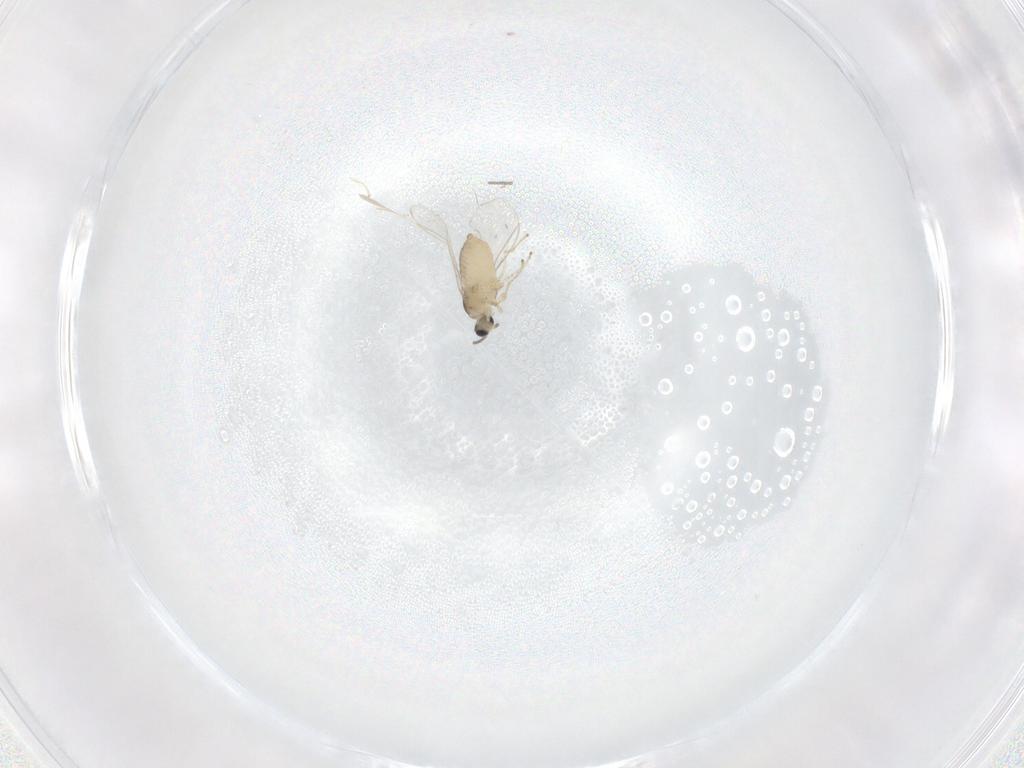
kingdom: Animalia
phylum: Arthropoda
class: Insecta
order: Diptera
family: Cecidomyiidae
